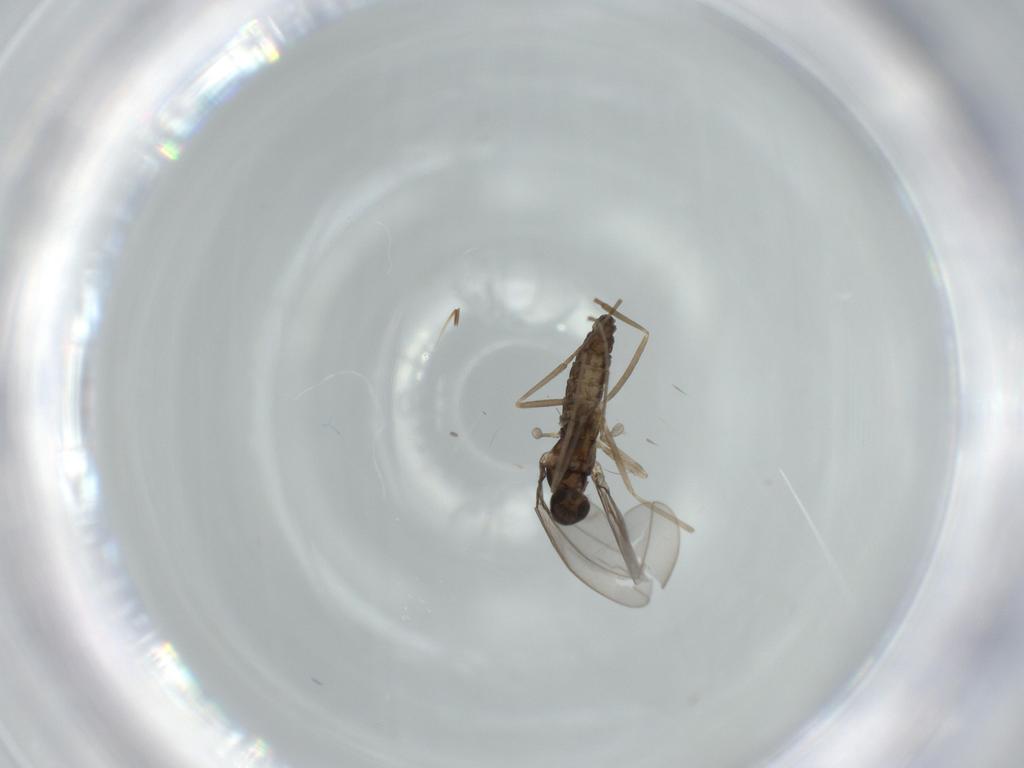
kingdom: Animalia
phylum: Arthropoda
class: Insecta
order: Diptera
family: Cecidomyiidae
